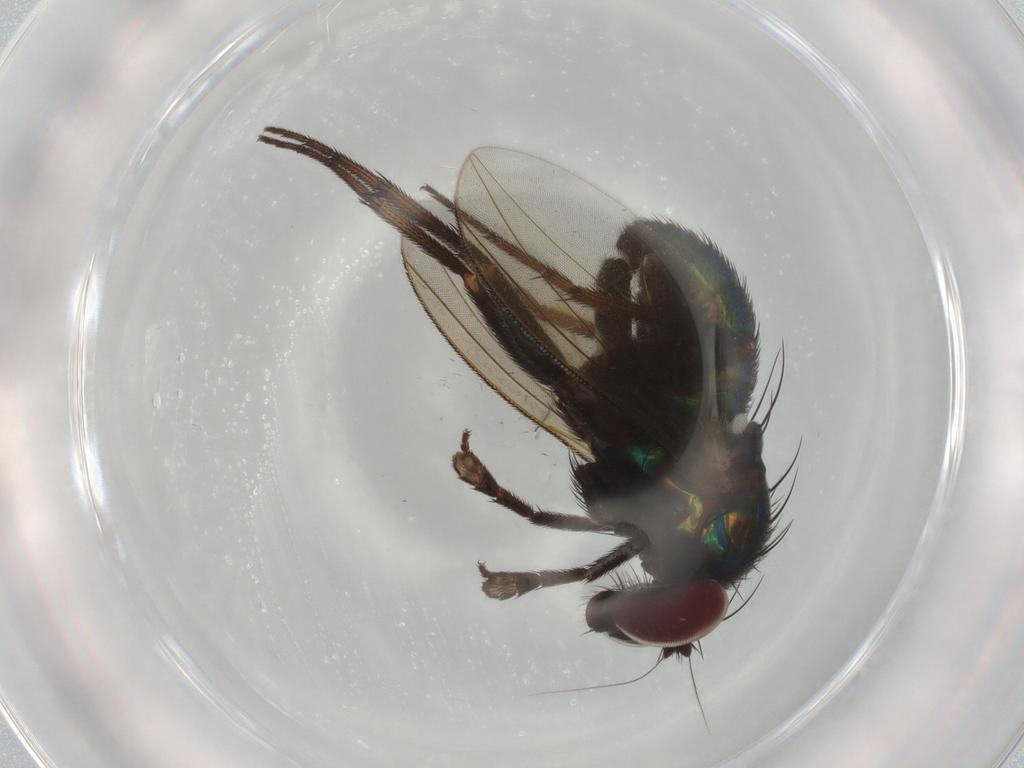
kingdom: Animalia
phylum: Arthropoda
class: Insecta
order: Diptera
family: Dolichopodidae
